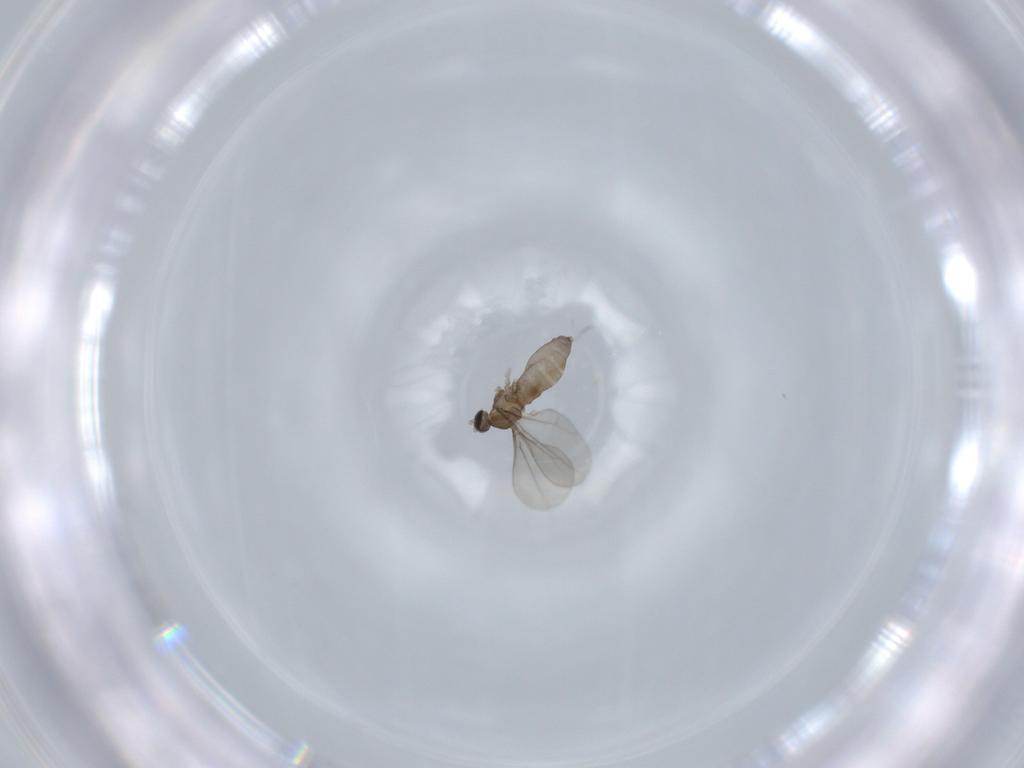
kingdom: Animalia
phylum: Arthropoda
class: Insecta
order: Diptera
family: Cecidomyiidae
